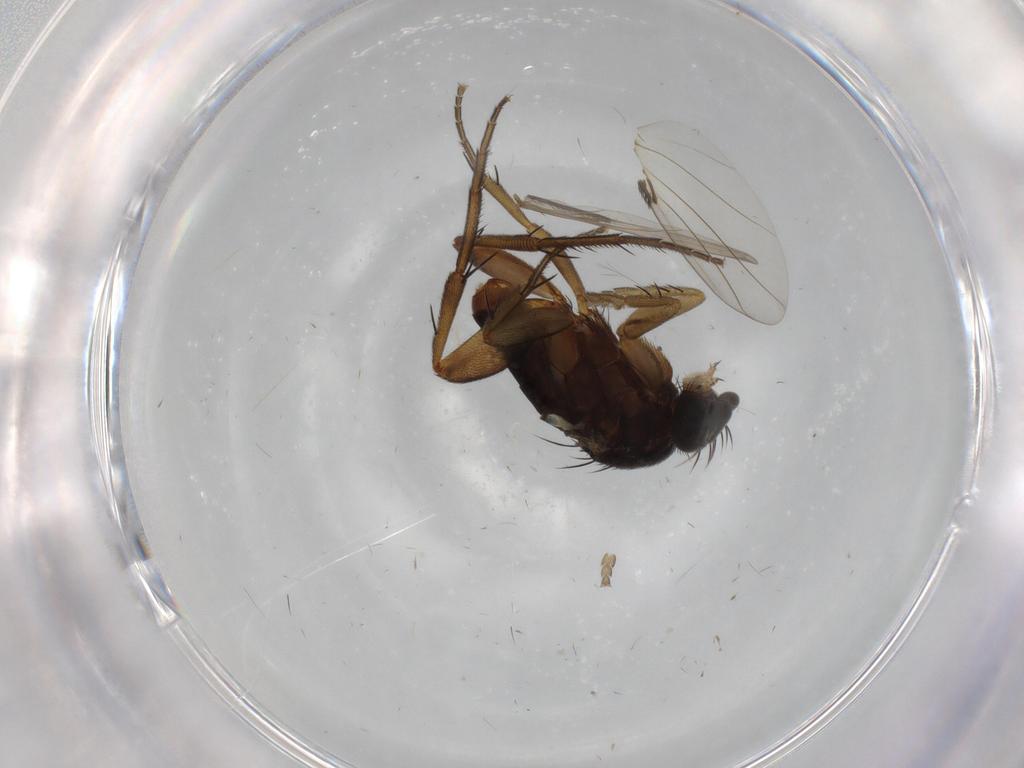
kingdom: Animalia
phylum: Arthropoda
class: Insecta
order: Diptera
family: Phoridae
